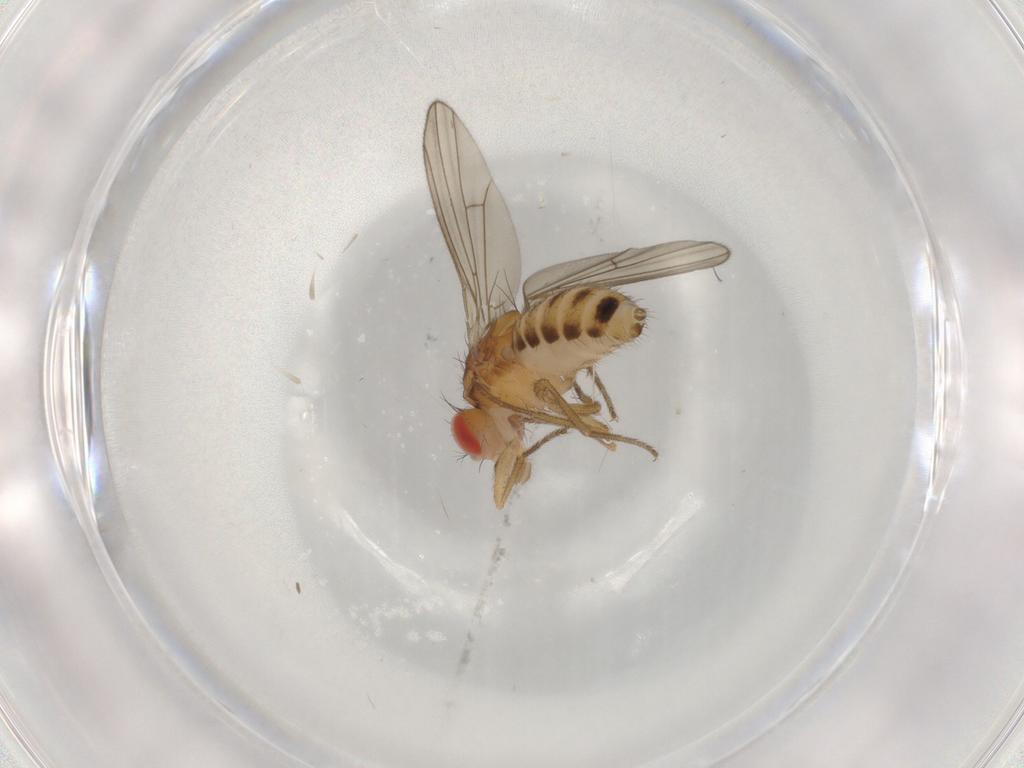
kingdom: Animalia
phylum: Arthropoda
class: Insecta
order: Diptera
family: Drosophilidae
